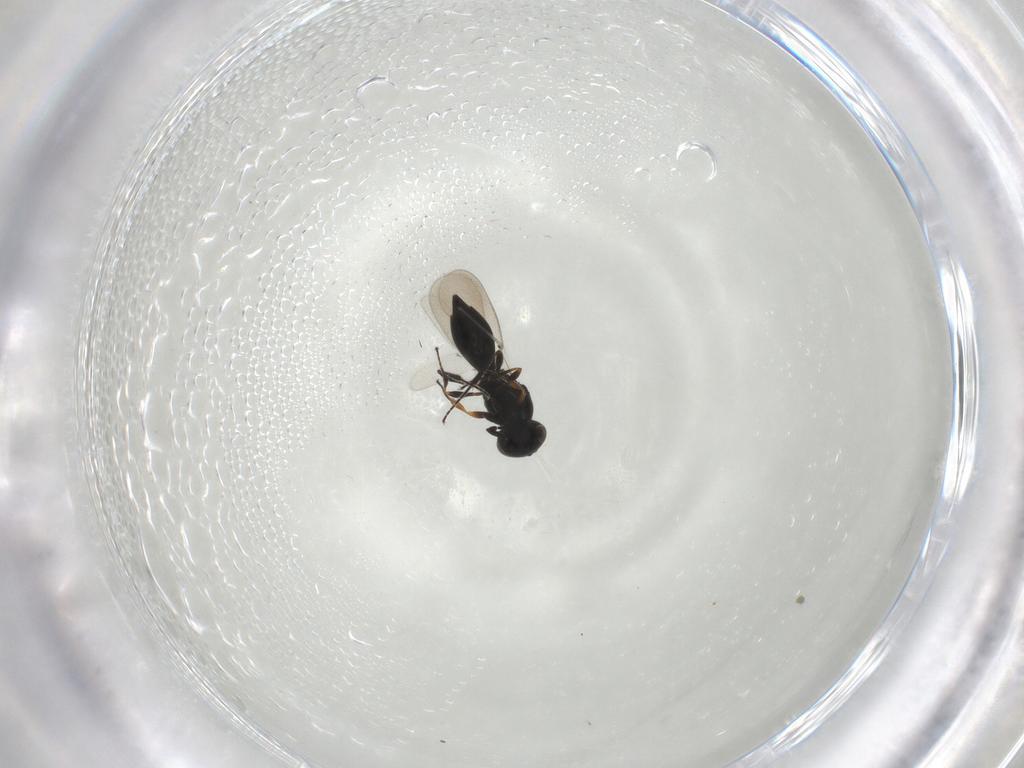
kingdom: Animalia
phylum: Arthropoda
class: Insecta
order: Hymenoptera
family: Platygastridae
